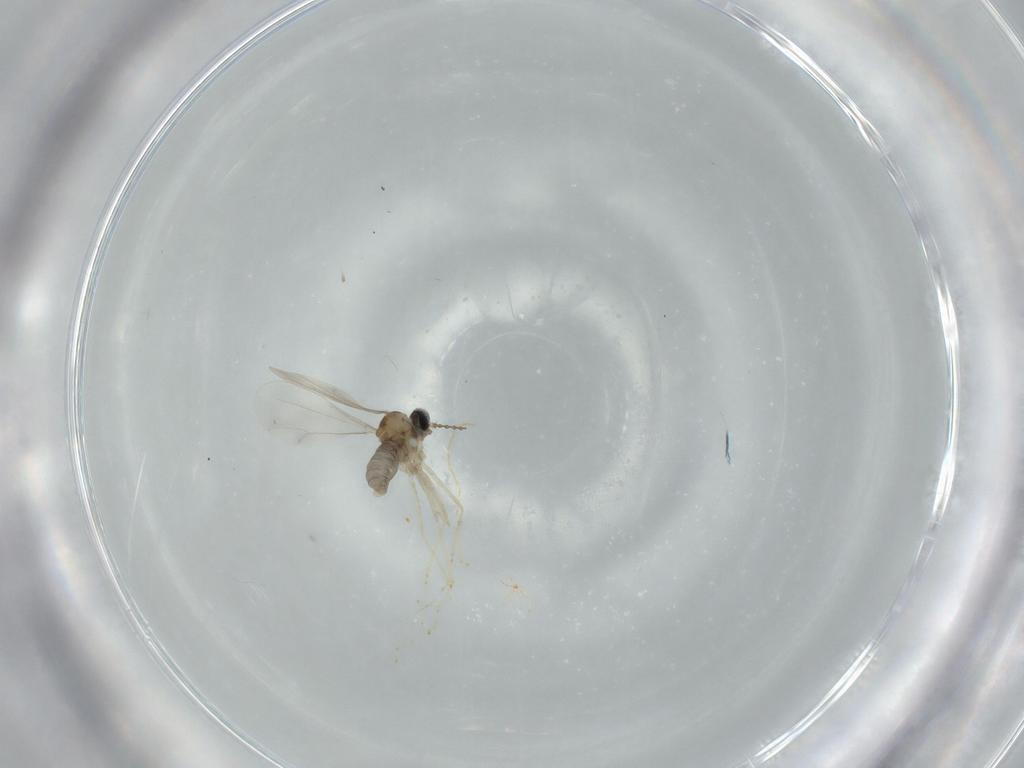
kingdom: Animalia
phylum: Arthropoda
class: Insecta
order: Diptera
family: Cecidomyiidae
